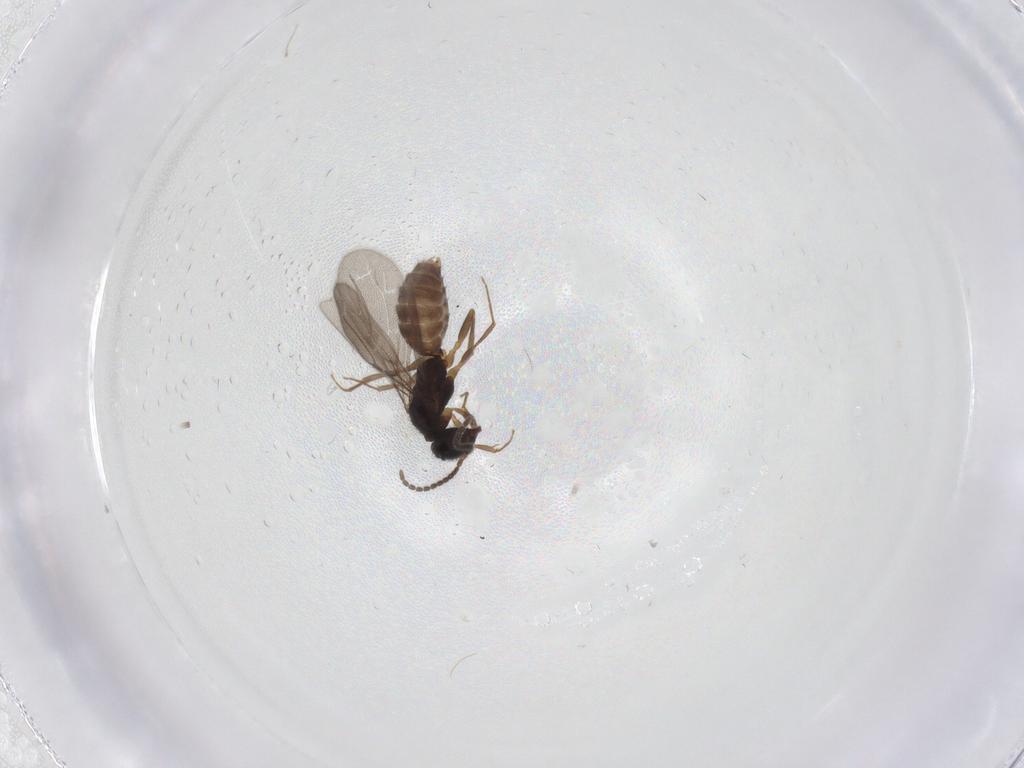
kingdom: Animalia
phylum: Arthropoda
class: Insecta
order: Hymenoptera
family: Bethylidae
